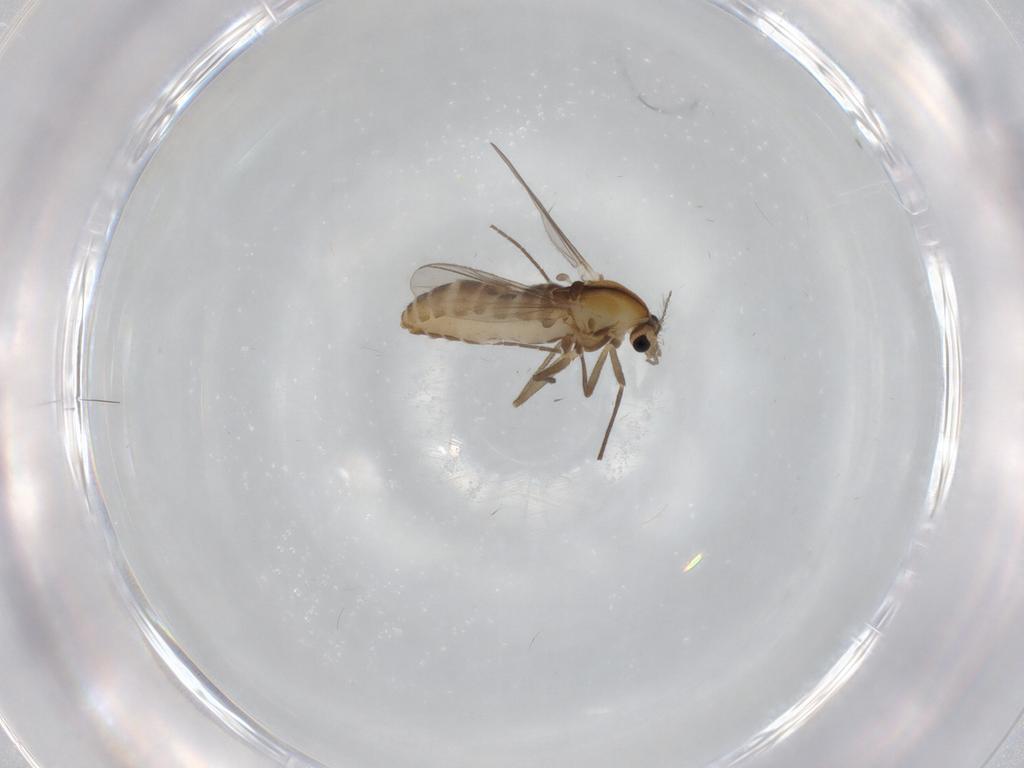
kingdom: Animalia
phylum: Arthropoda
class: Insecta
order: Diptera
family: Chironomidae
